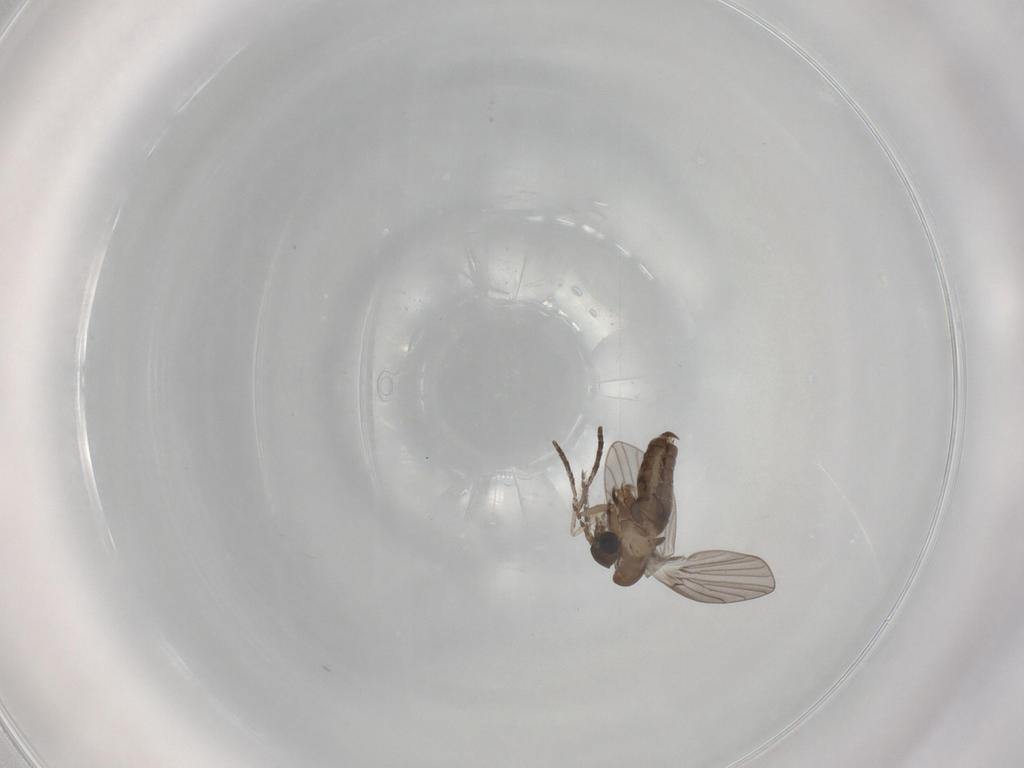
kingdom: Animalia
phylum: Arthropoda
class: Insecta
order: Diptera
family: Psychodidae
